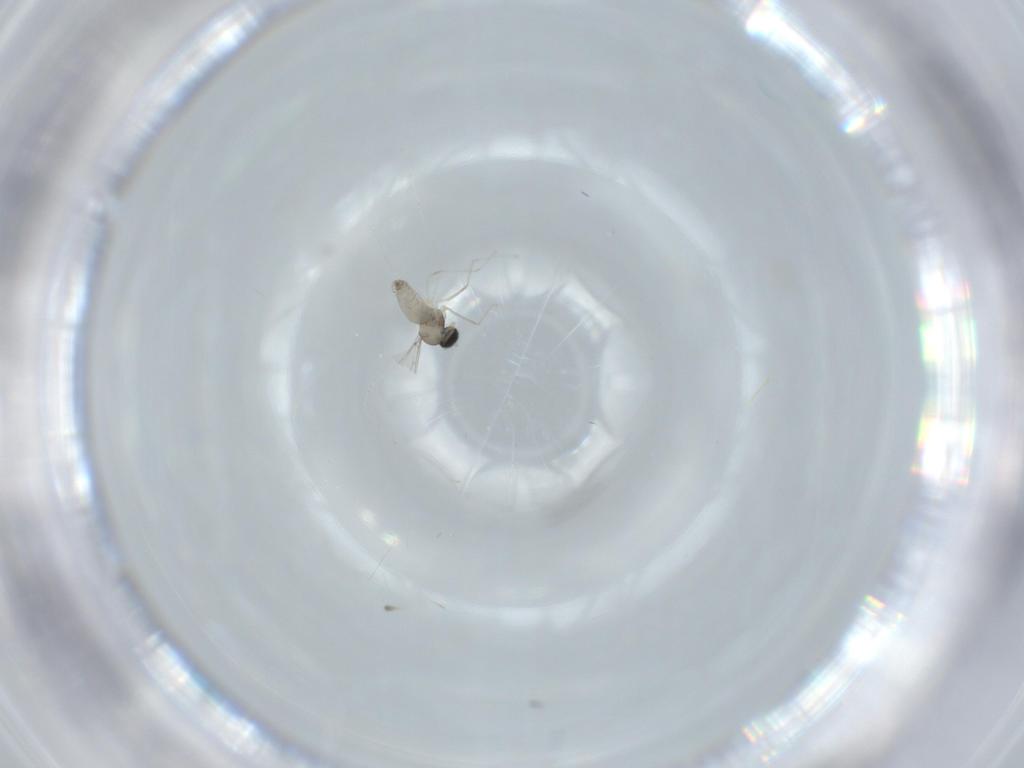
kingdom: Animalia
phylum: Arthropoda
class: Insecta
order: Diptera
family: Cecidomyiidae
